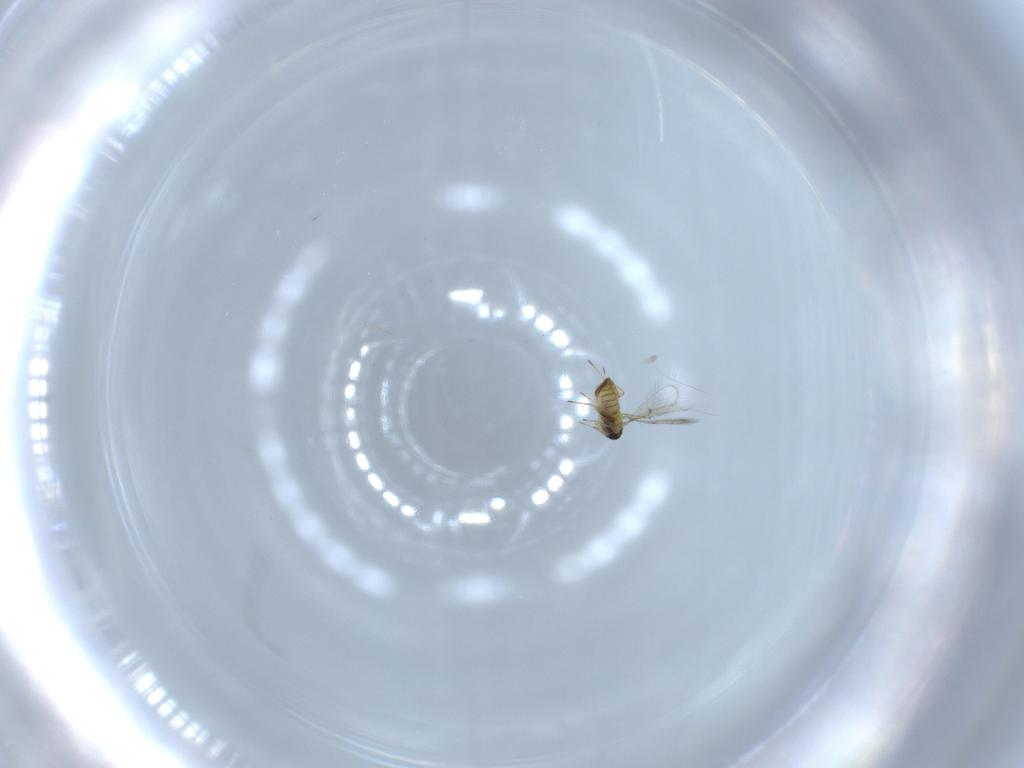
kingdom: Animalia
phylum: Arthropoda
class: Insecta
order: Hymenoptera
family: Trichogrammatidae
